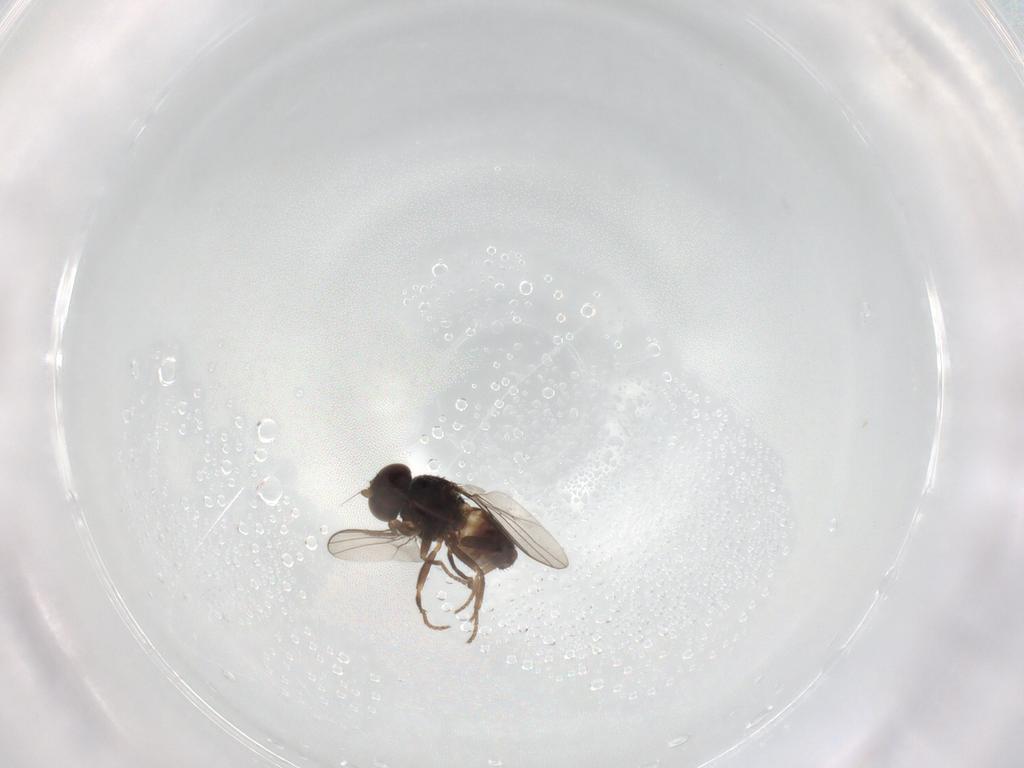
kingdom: Animalia
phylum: Arthropoda
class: Insecta
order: Diptera
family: Chloropidae
